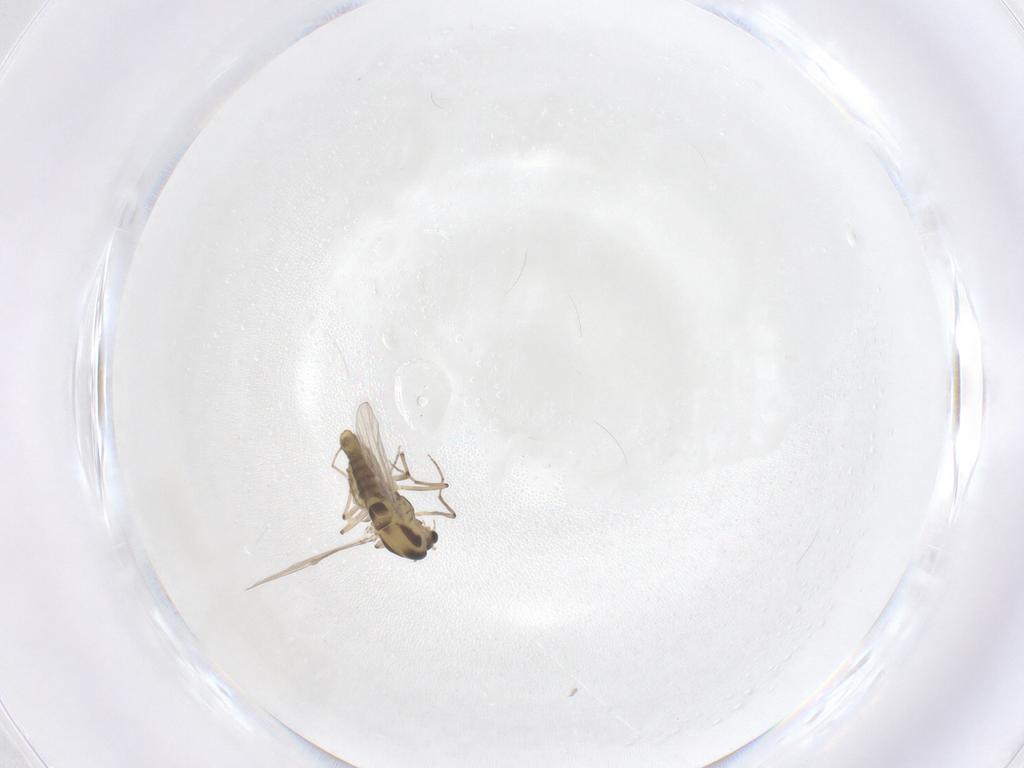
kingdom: Animalia
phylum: Arthropoda
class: Insecta
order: Diptera
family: Chironomidae
